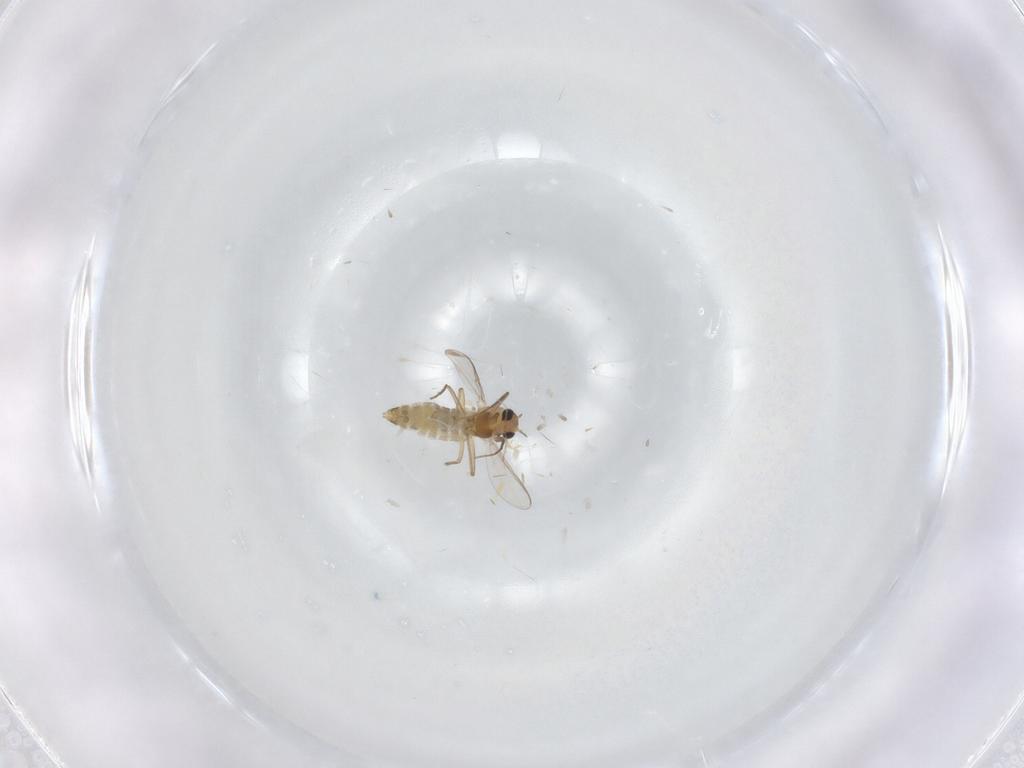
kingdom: Animalia
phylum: Arthropoda
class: Insecta
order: Diptera
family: Chironomidae
